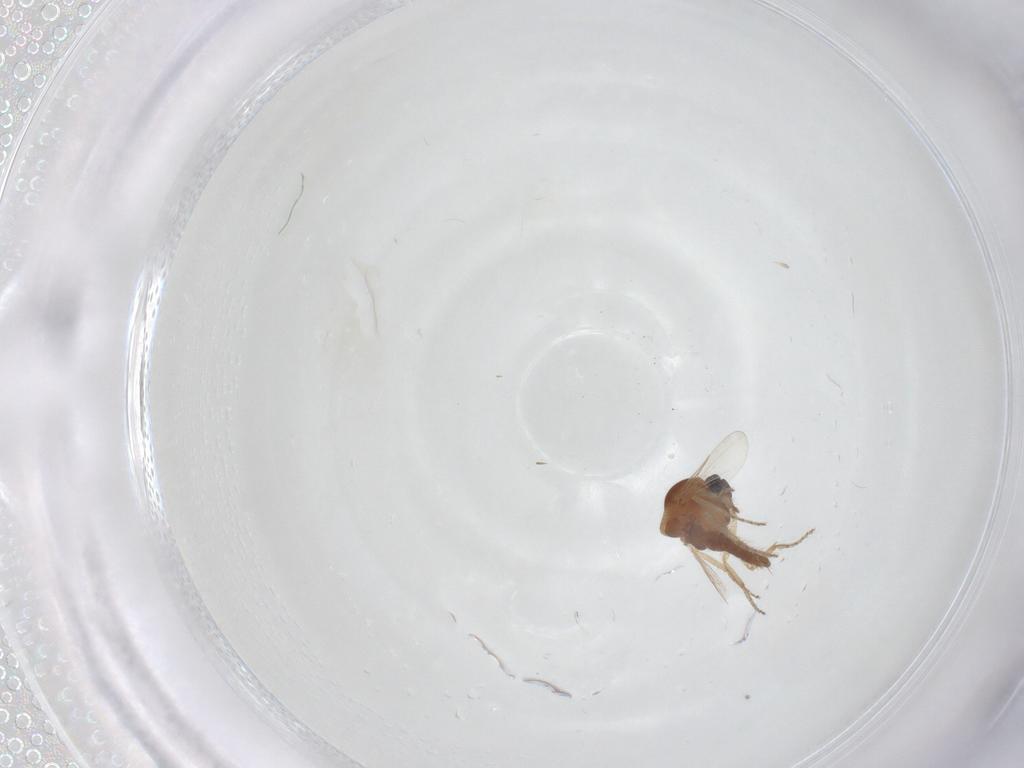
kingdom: Animalia
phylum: Arthropoda
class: Insecta
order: Diptera
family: Ceratopogonidae
